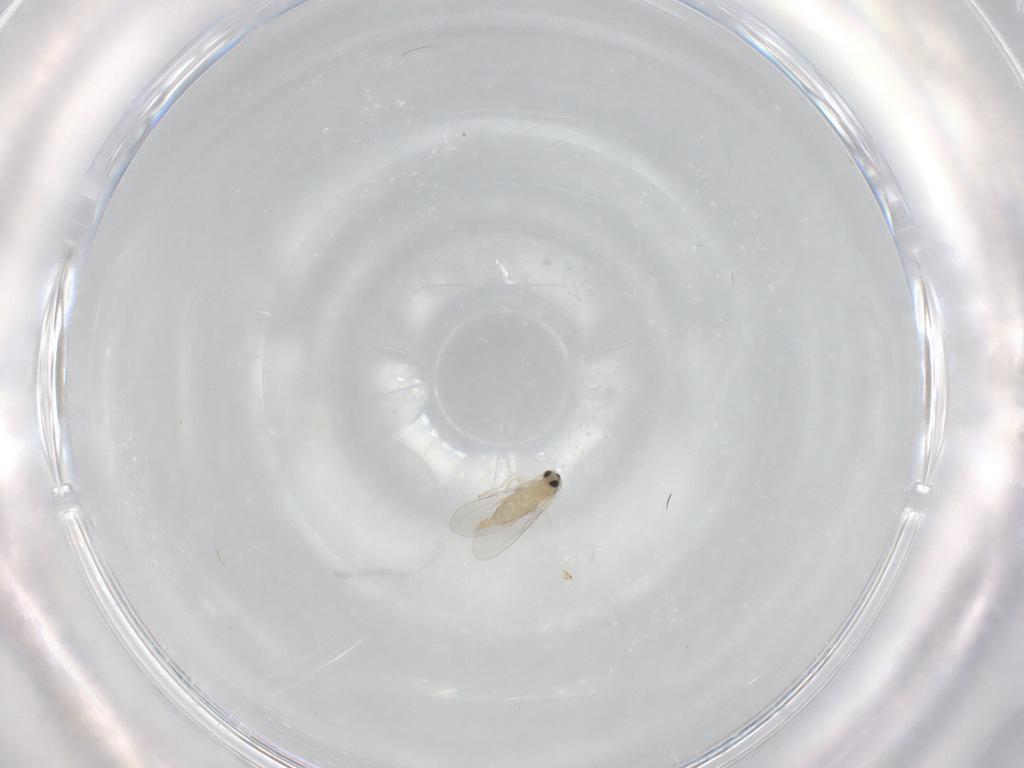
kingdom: Animalia
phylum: Arthropoda
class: Insecta
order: Diptera
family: Cecidomyiidae
